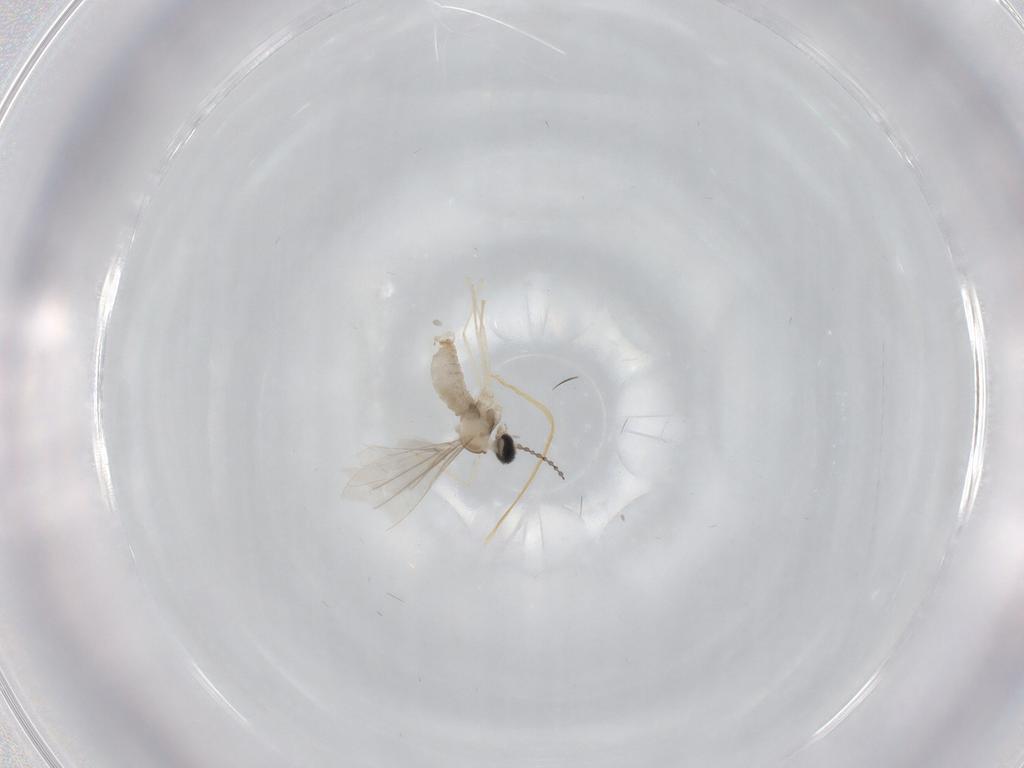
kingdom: Animalia
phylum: Arthropoda
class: Insecta
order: Diptera
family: Cecidomyiidae
